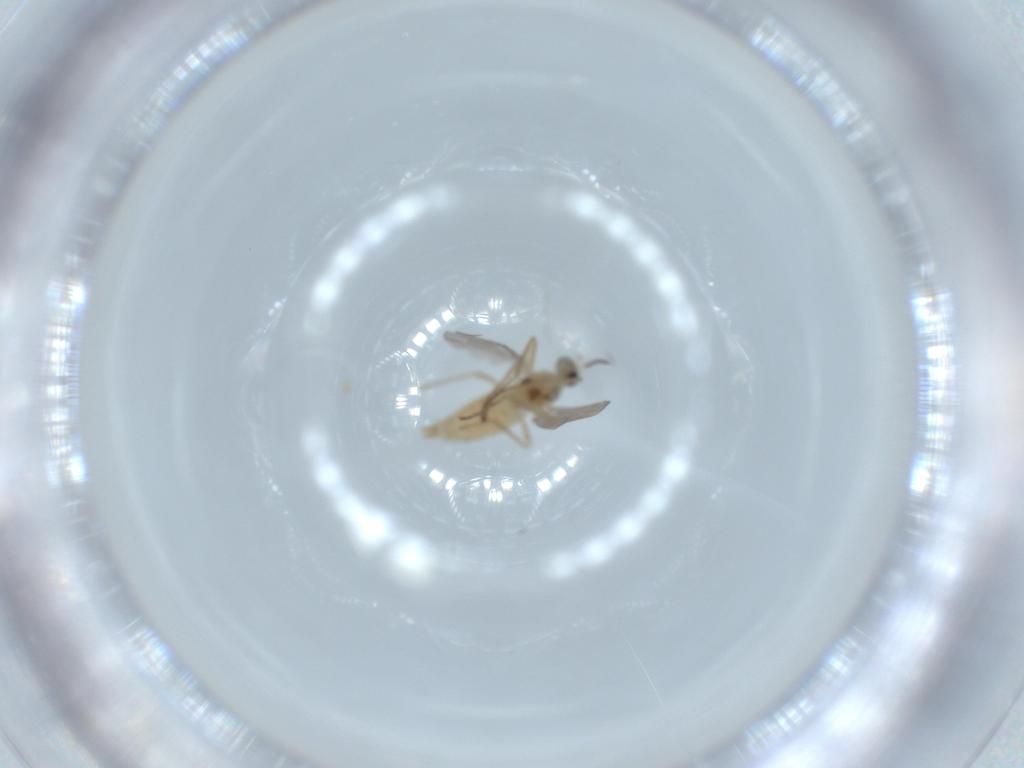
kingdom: Animalia
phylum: Arthropoda
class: Insecta
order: Diptera
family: Cecidomyiidae
